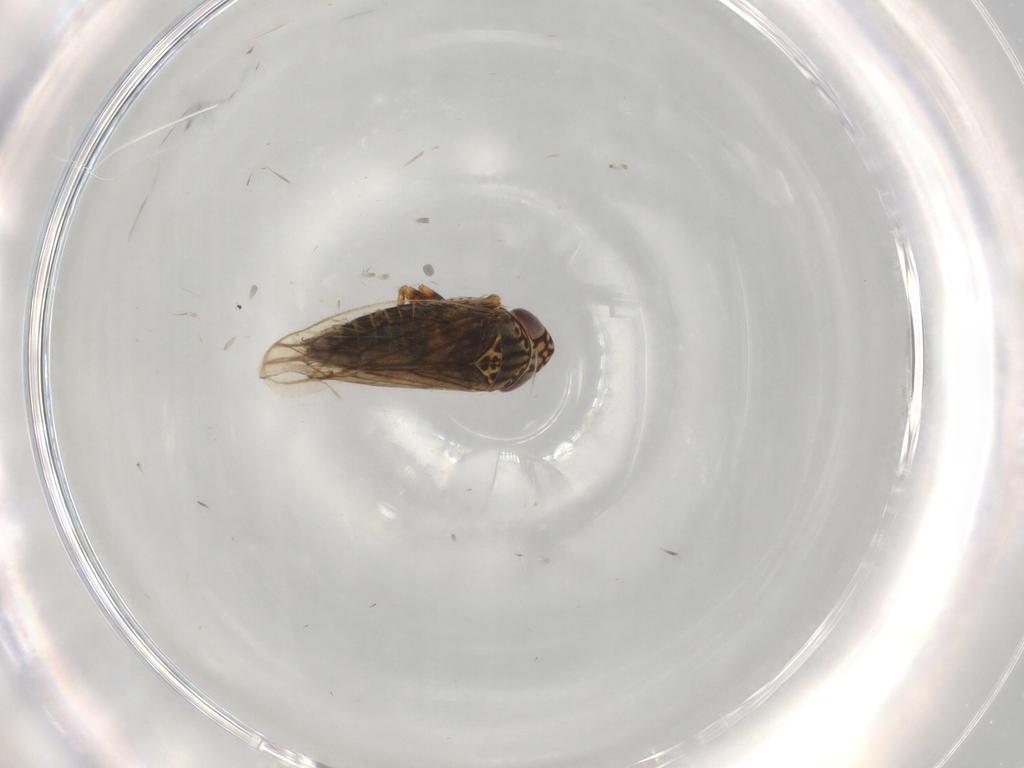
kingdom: Animalia
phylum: Arthropoda
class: Insecta
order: Hemiptera
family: Cicadellidae
